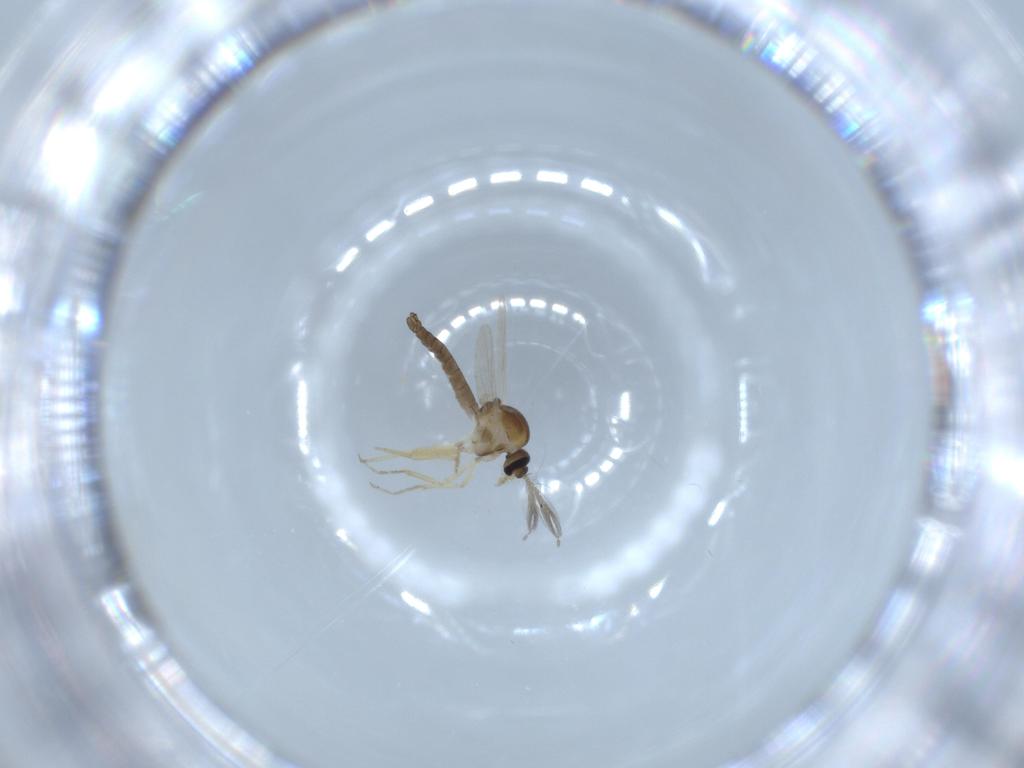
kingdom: Animalia
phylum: Arthropoda
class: Insecta
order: Diptera
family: Ceratopogonidae
